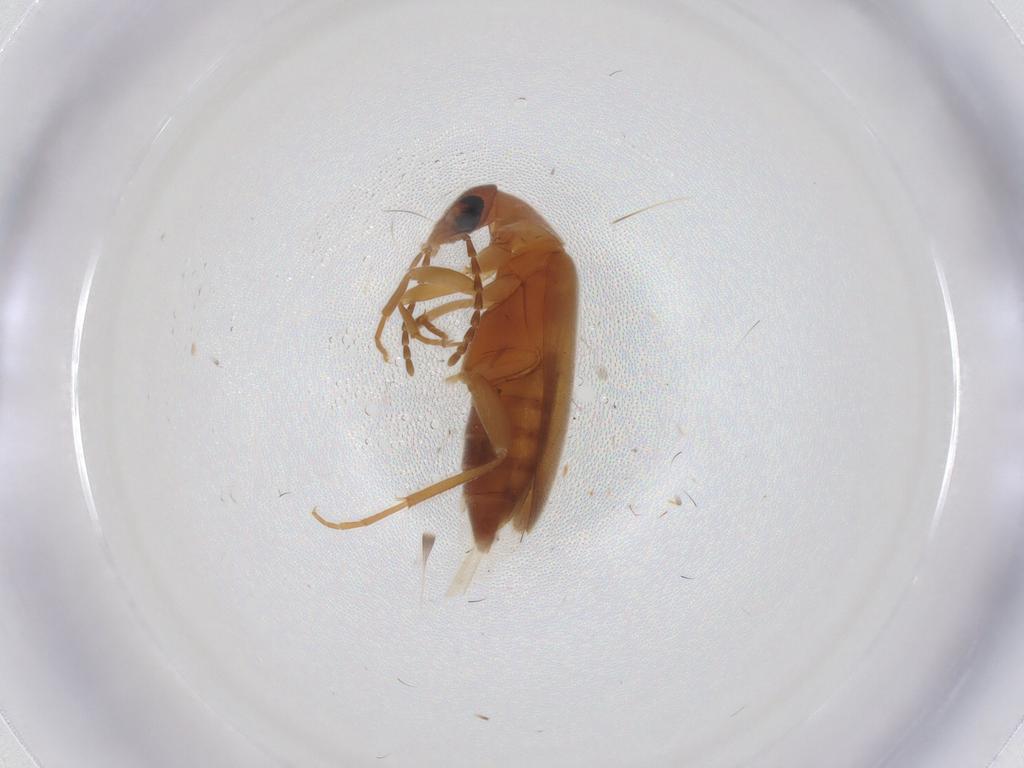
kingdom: Animalia
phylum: Arthropoda
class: Insecta
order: Coleoptera
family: Scraptiidae
